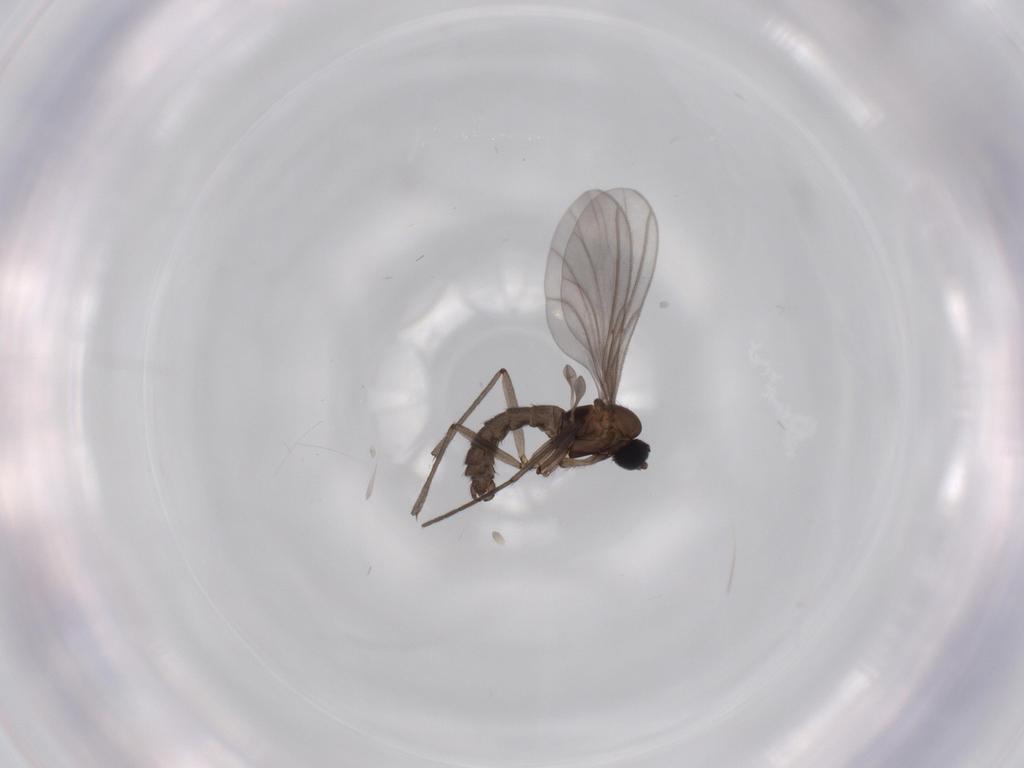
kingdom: Animalia
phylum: Arthropoda
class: Insecta
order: Diptera
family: Sciaridae
